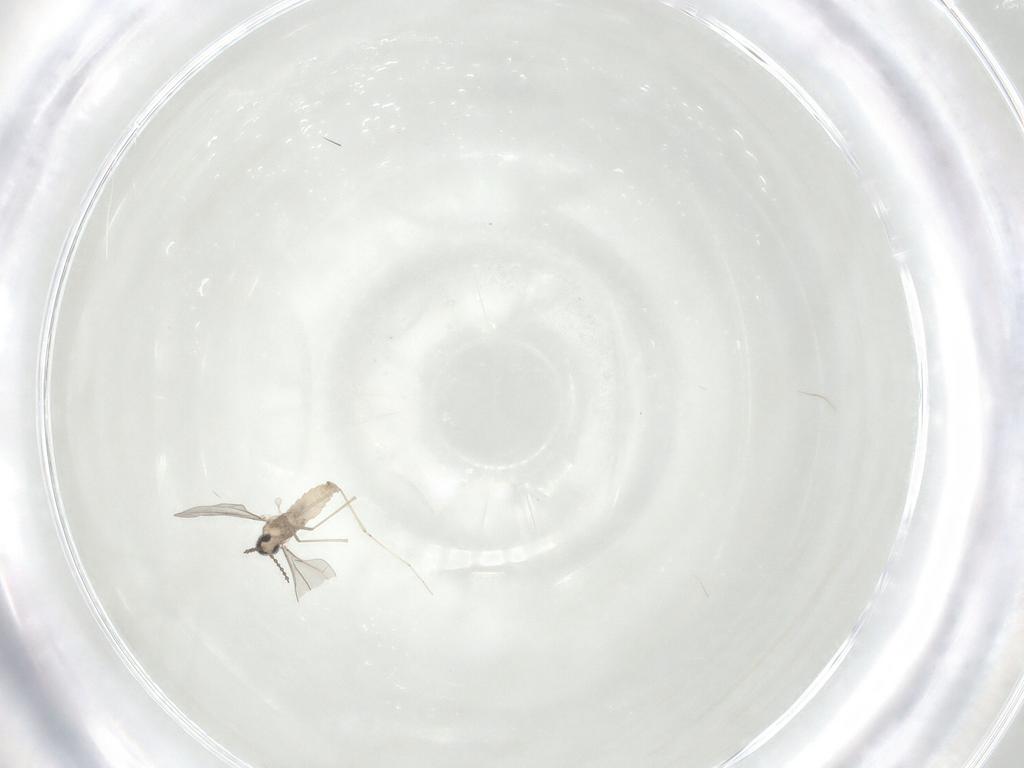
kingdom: Animalia
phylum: Arthropoda
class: Insecta
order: Diptera
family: Cecidomyiidae
